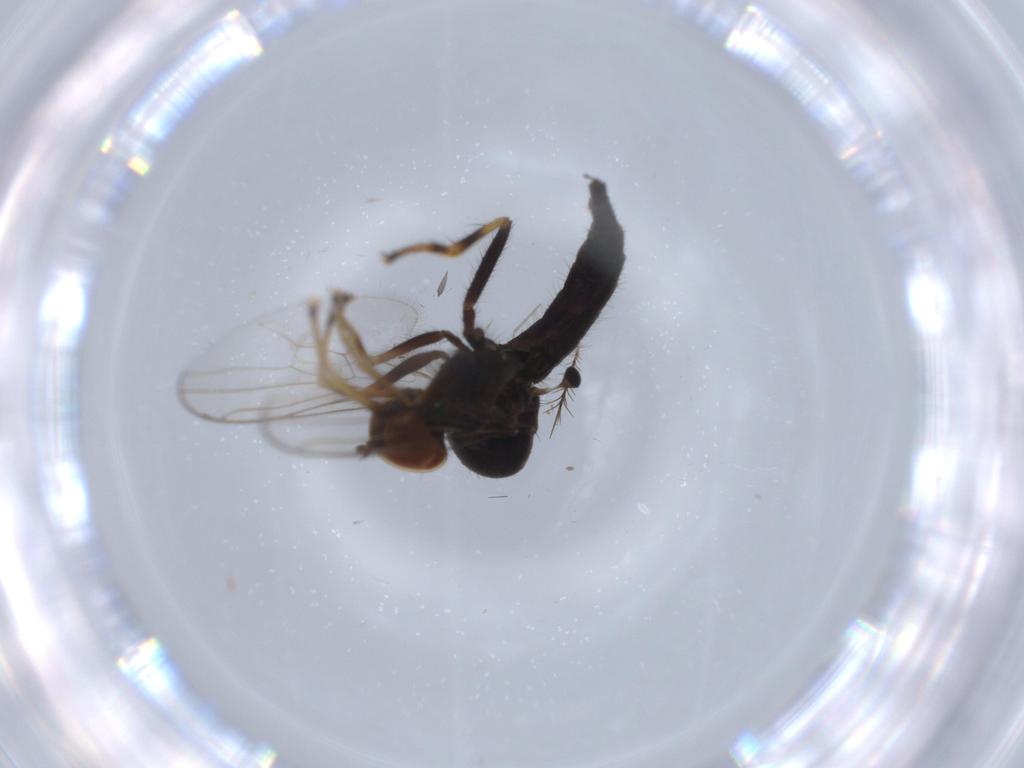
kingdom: Animalia
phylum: Arthropoda
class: Insecta
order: Diptera
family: Hybotidae
